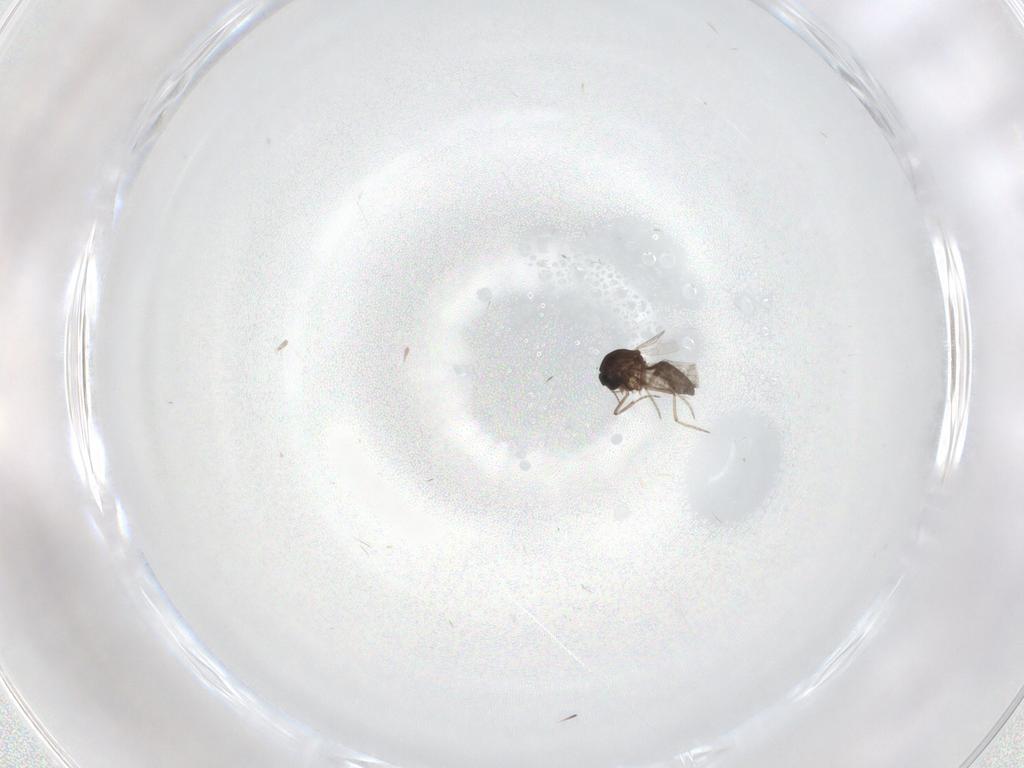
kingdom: Animalia
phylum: Arthropoda
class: Insecta
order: Diptera
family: Ceratopogonidae
